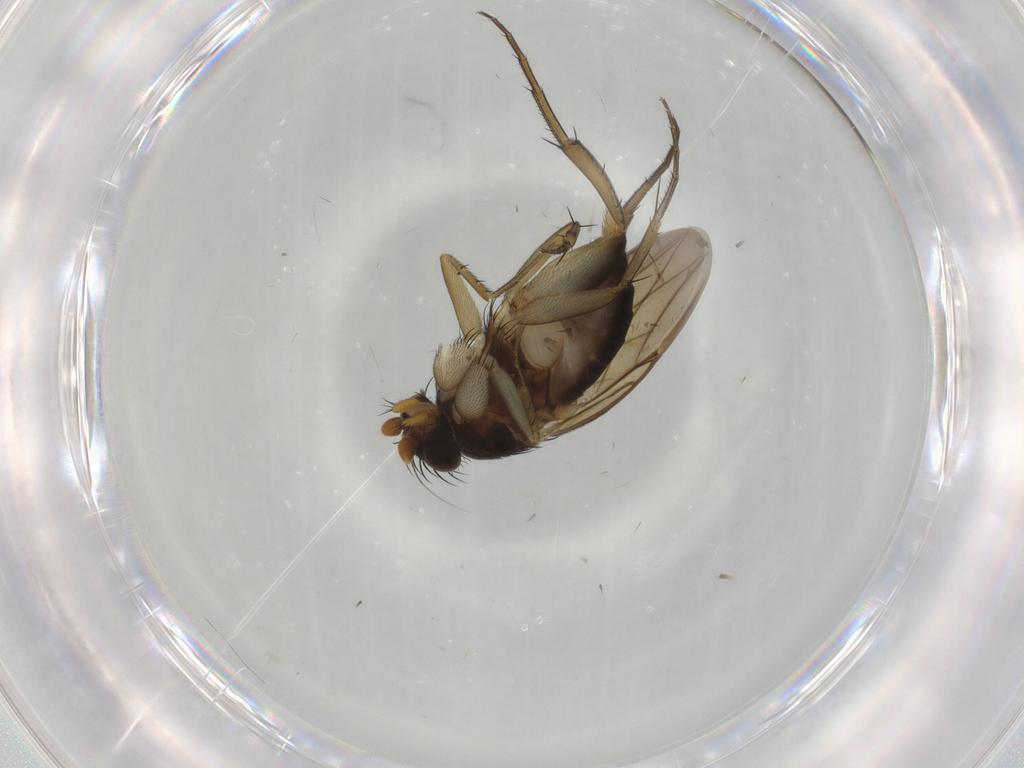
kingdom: Animalia
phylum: Arthropoda
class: Insecta
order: Diptera
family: Phoridae
